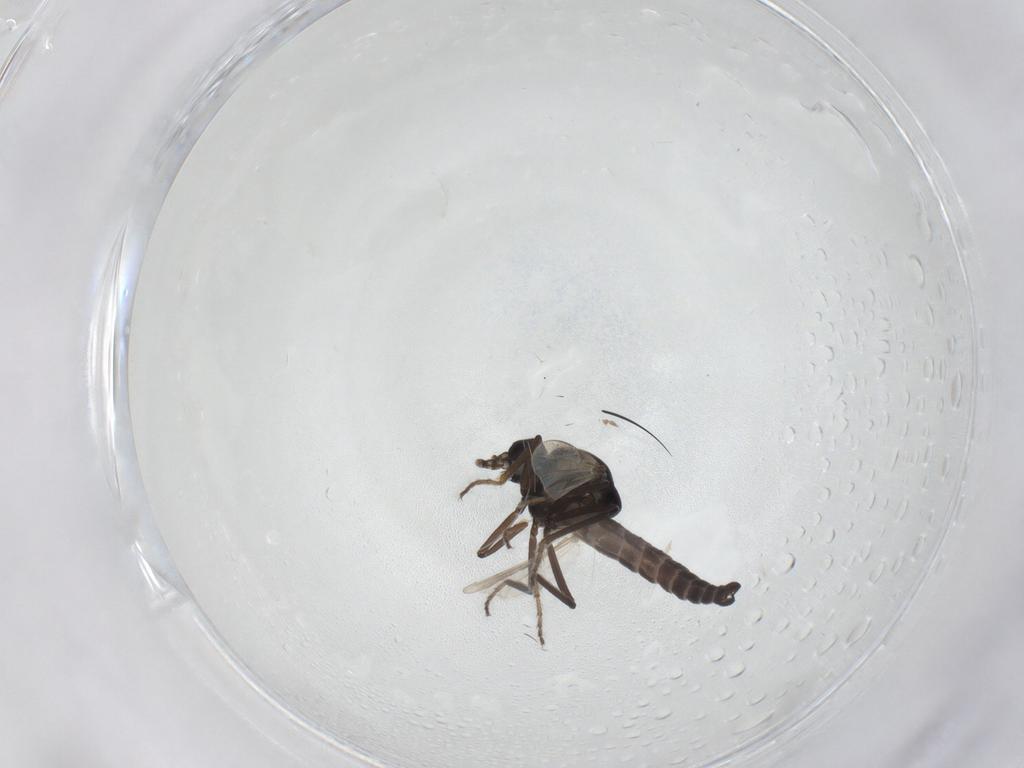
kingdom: Animalia
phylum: Arthropoda
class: Insecta
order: Diptera
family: Ceratopogonidae
